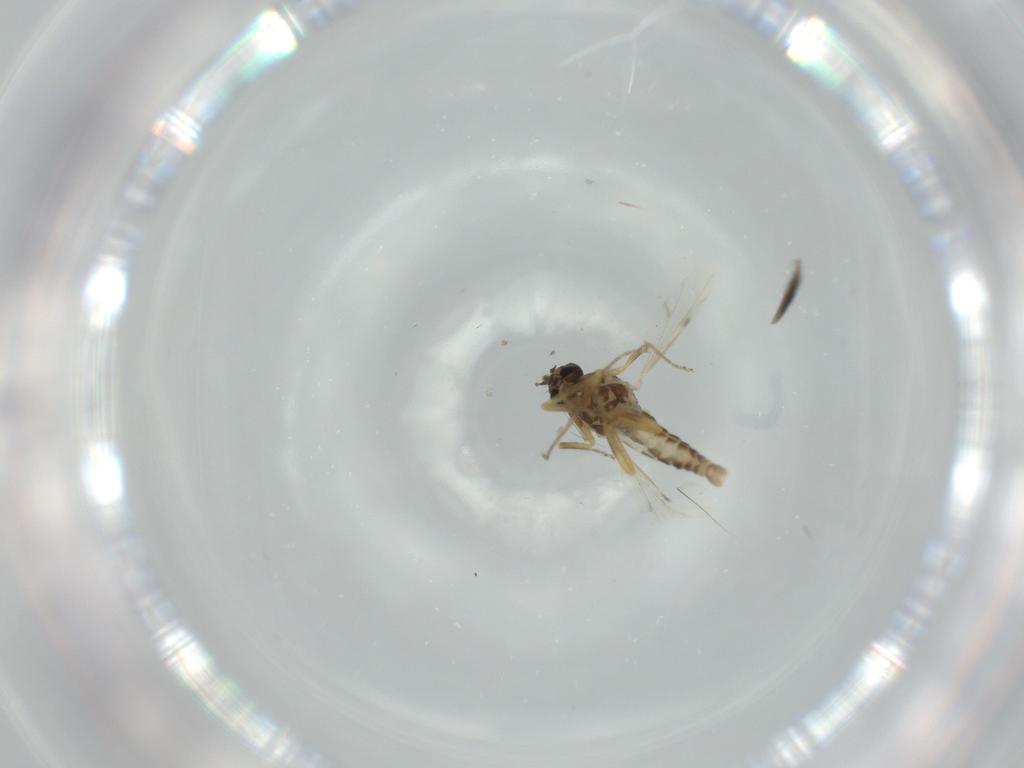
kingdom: Animalia
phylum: Arthropoda
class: Insecta
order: Diptera
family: Ceratopogonidae
